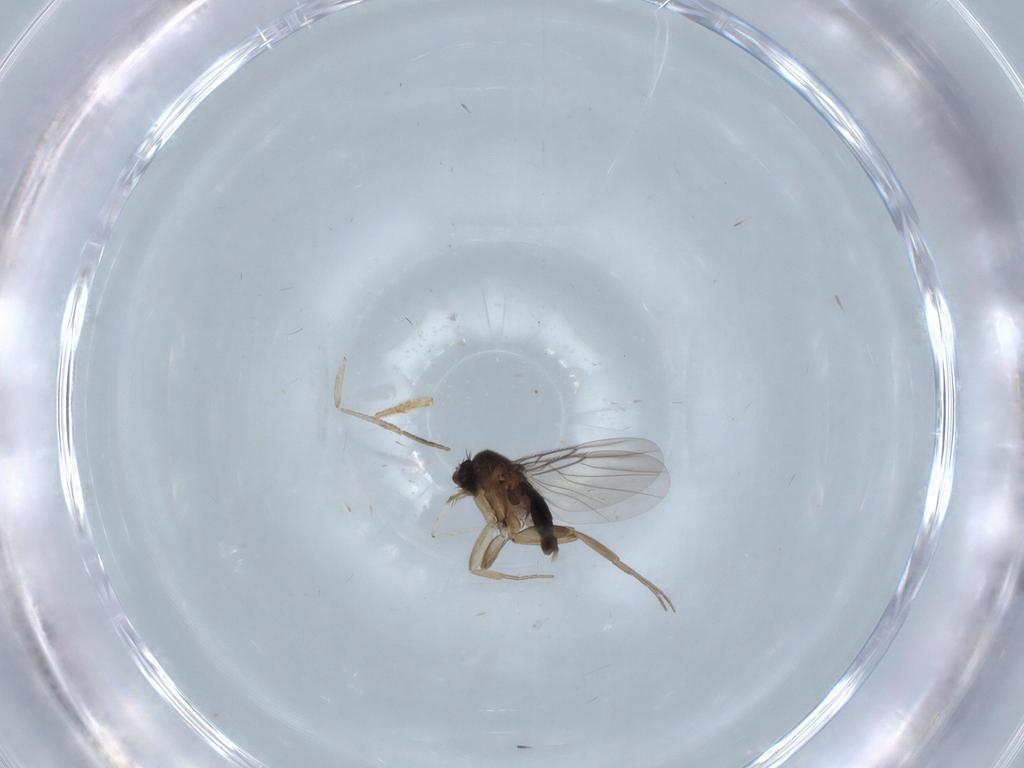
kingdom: Animalia
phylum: Arthropoda
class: Insecta
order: Diptera
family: Phoridae
